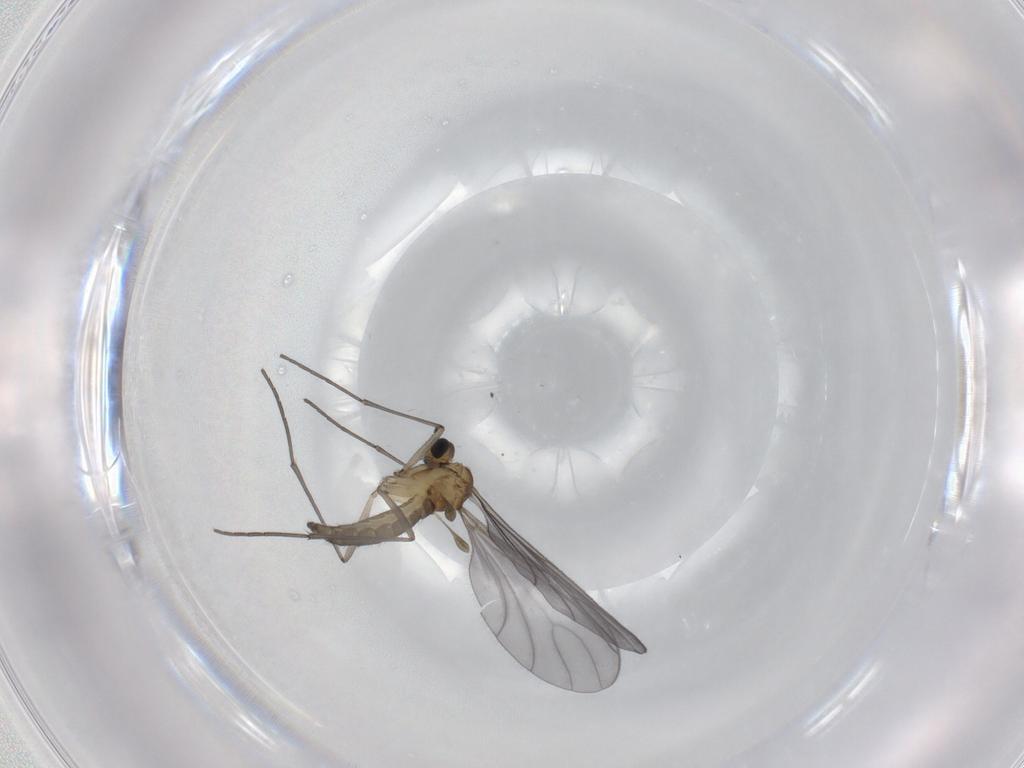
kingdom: Animalia
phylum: Arthropoda
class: Insecta
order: Diptera
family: Sciaridae
